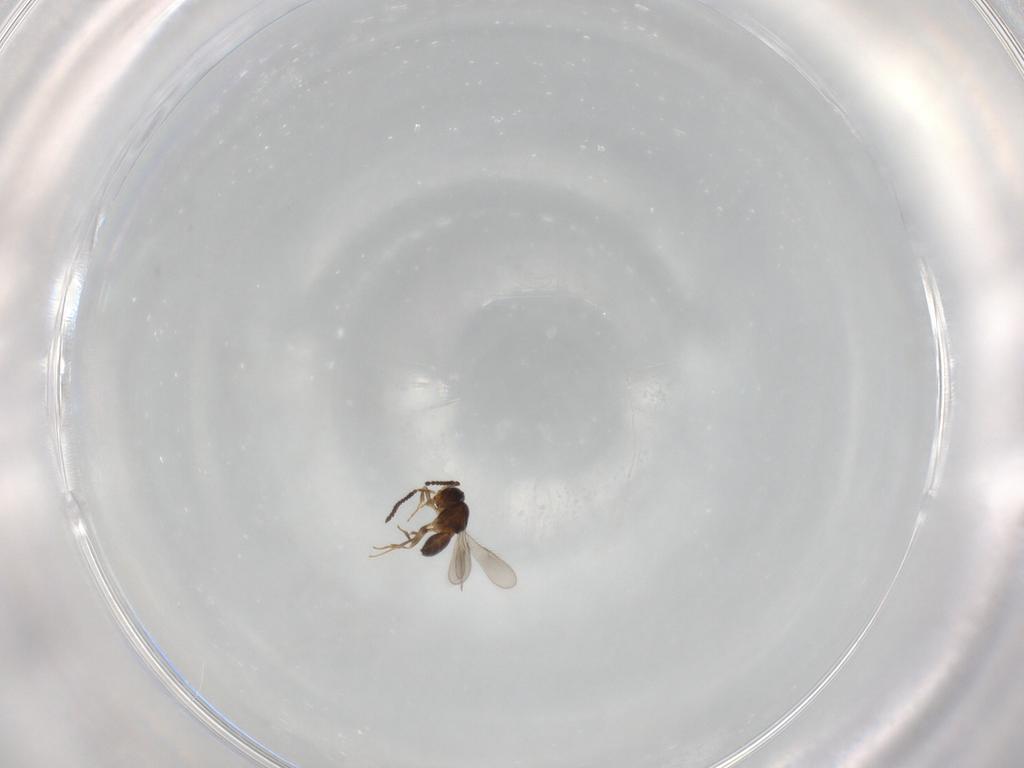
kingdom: Animalia
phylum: Arthropoda
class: Insecta
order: Hymenoptera
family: Scelionidae
